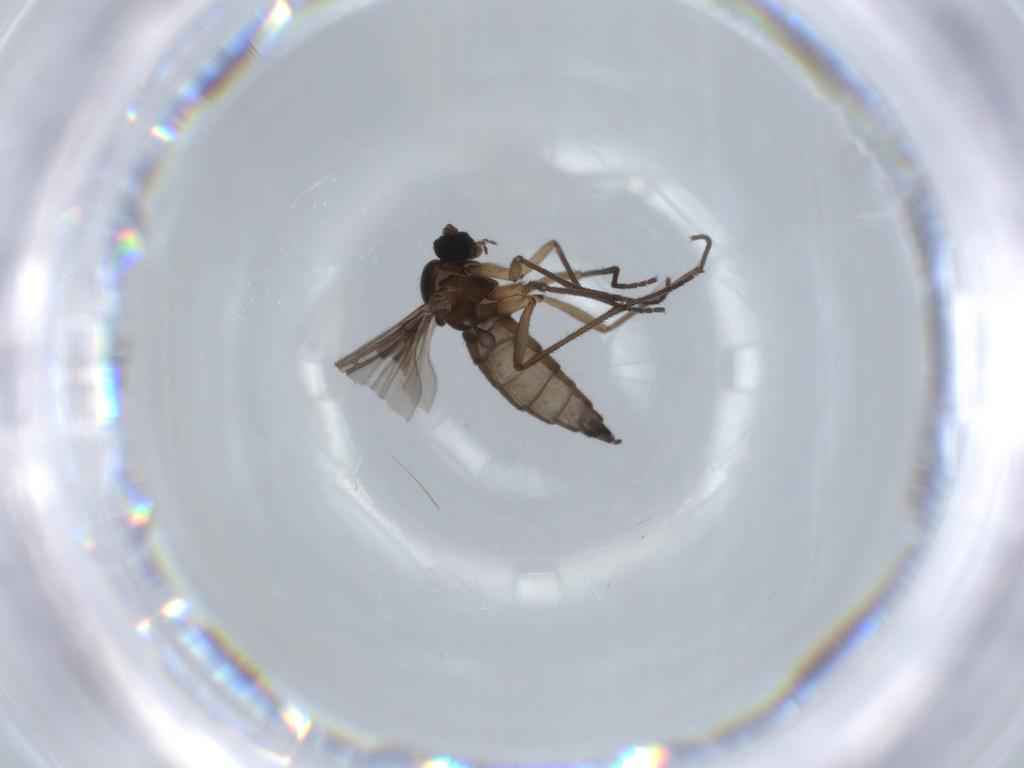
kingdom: Animalia
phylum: Arthropoda
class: Insecta
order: Diptera
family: Sciaridae
